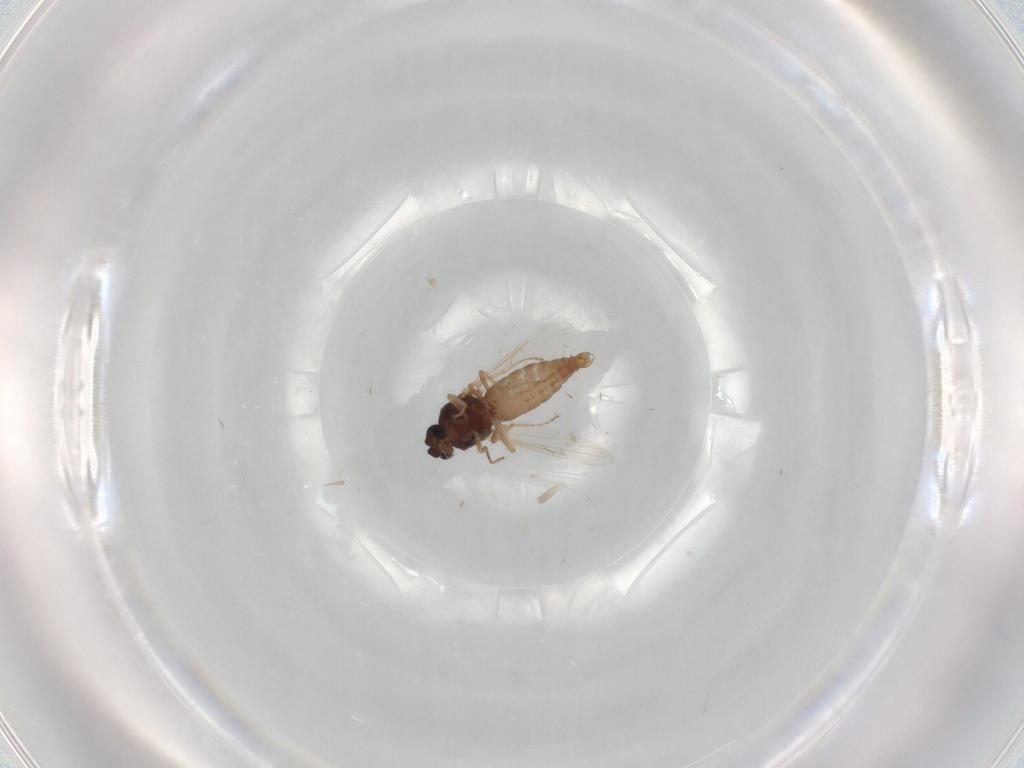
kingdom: Animalia
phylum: Arthropoda
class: Insecta
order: Diptera
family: Ceratopogonidae
